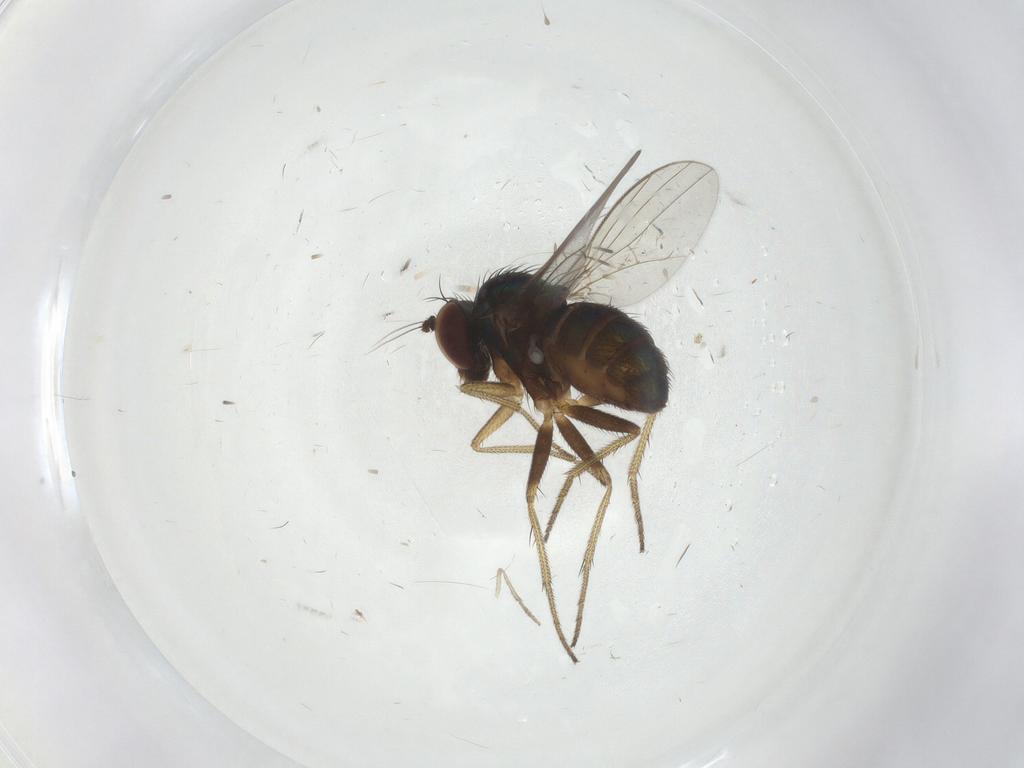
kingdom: Animalia
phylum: Arthropoda
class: Insecta
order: Diptera
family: Dolichopodidae
